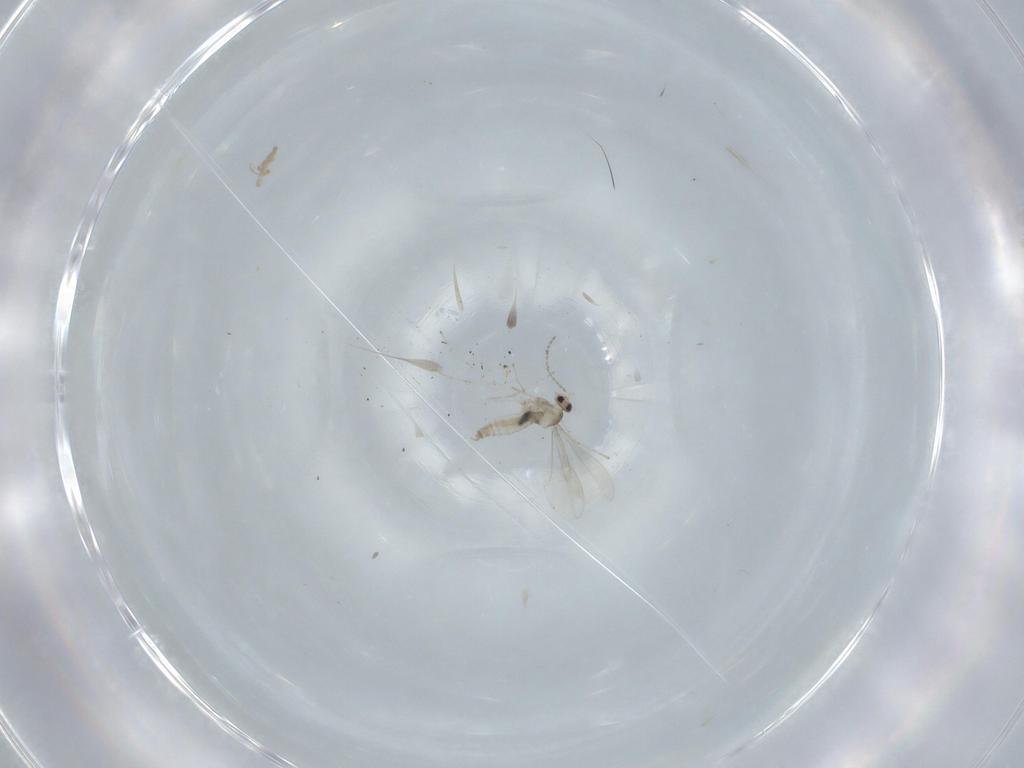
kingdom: Animalia
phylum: Arthropoda
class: Insecta
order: Diptera
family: Cecidomyiidae
